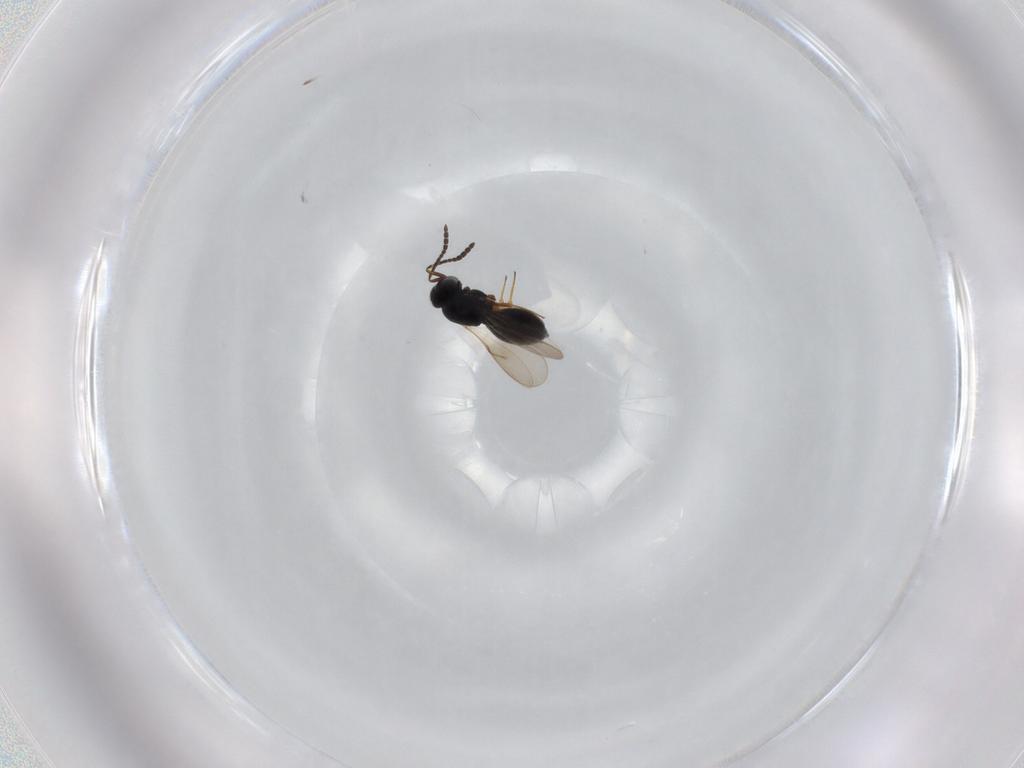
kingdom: Animalia
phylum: Arthropoda
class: Insecta
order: Hymenoptera
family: Scelionidae
